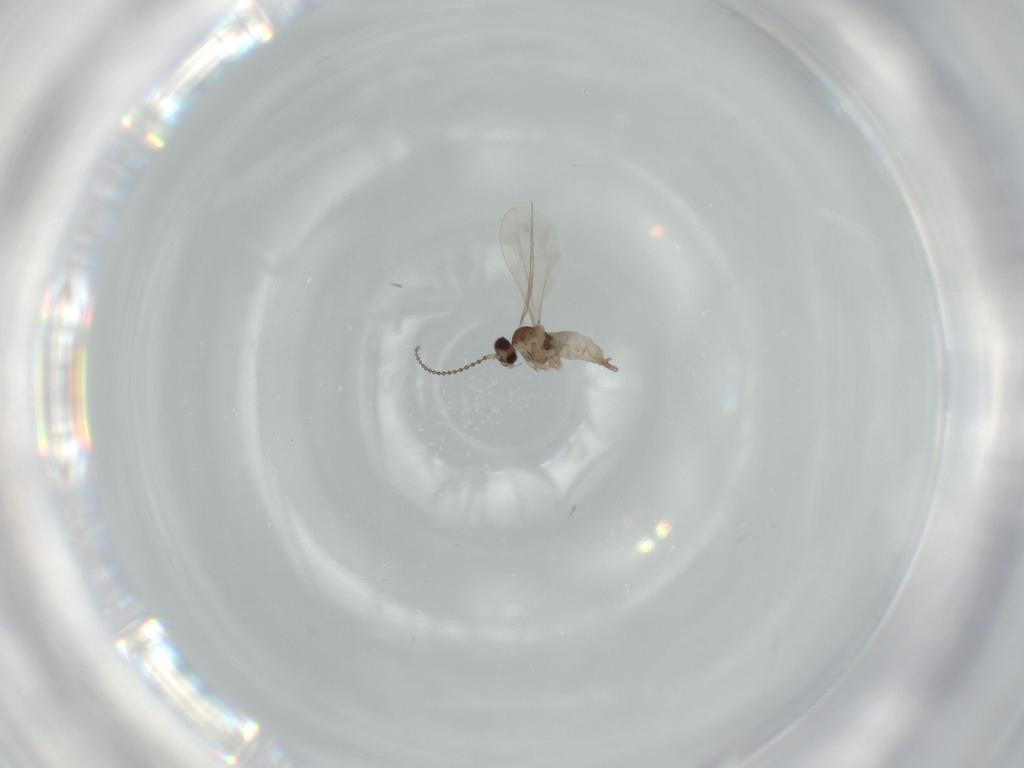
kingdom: Animalia
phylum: Arthropoda
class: Insecta
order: Diptera
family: Cecidomyiidae
